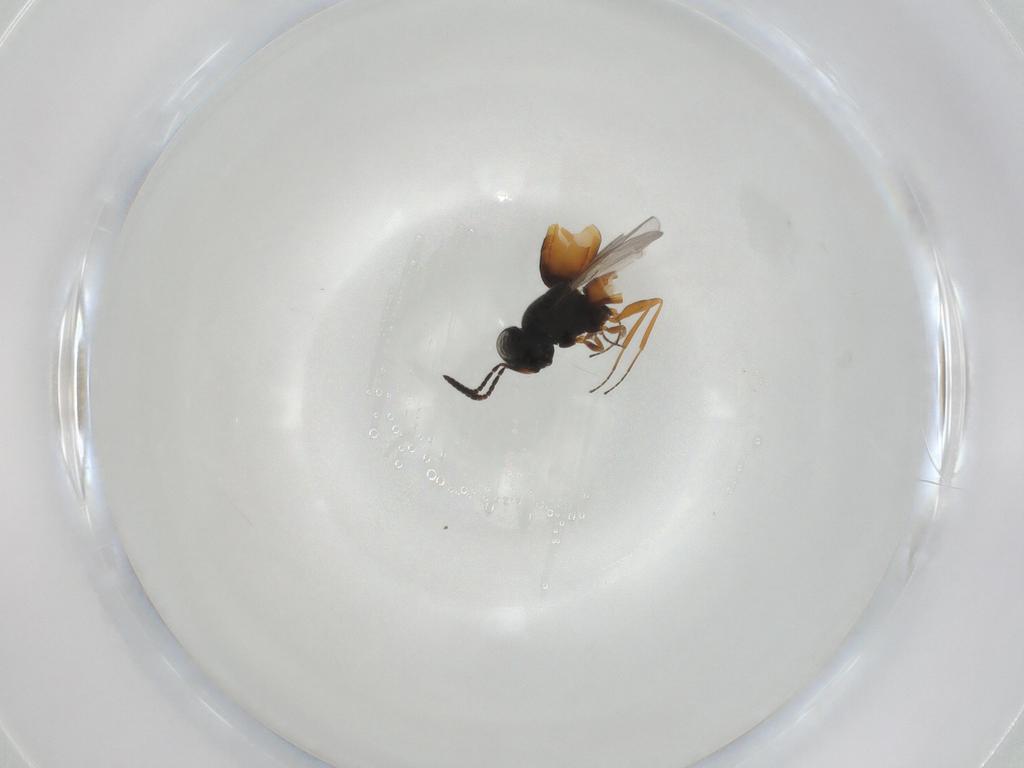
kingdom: Animalia
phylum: Arthropoda
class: Insecta
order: Hymenoptera
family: Scelionidae
